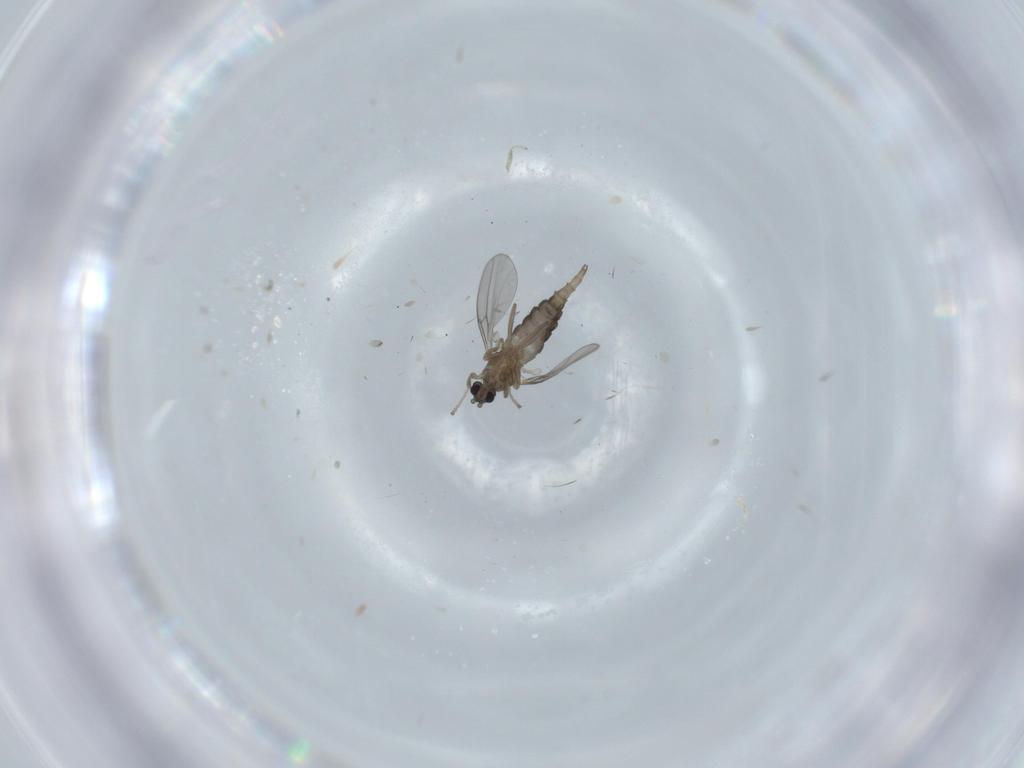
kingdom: Animalia
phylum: Arthropoda
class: Insecta
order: Diptera
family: Cecidomyiidae
